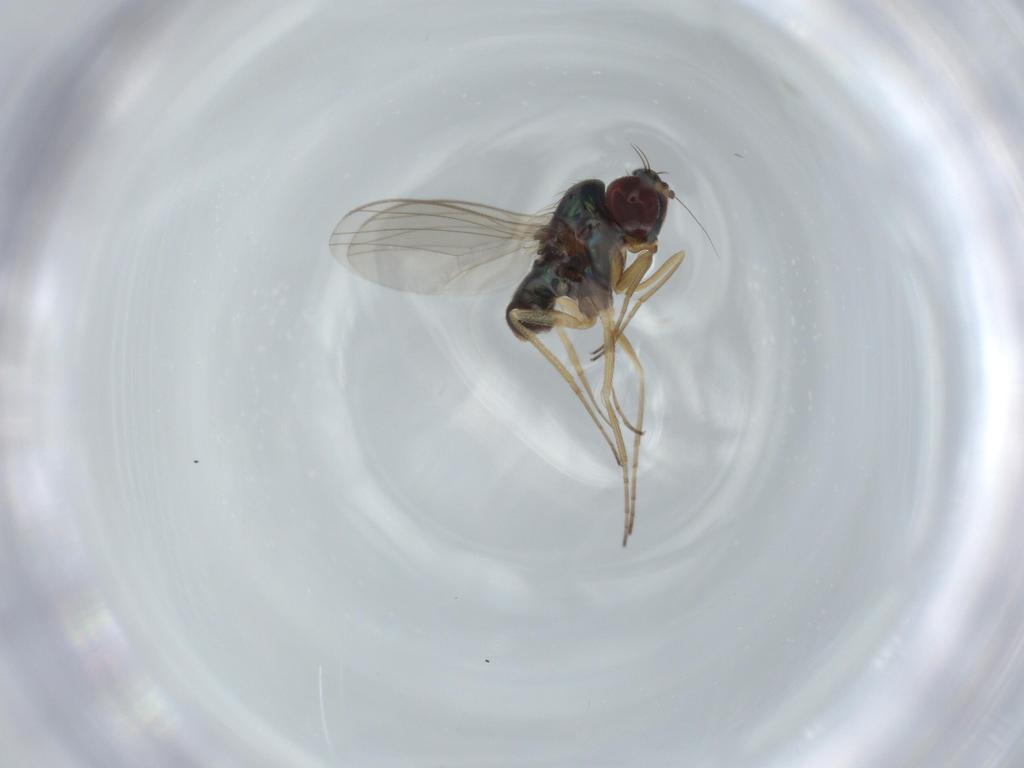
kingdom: Animalia
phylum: Arthropoda
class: Insecta
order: Diptera
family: Dolichopodidae
